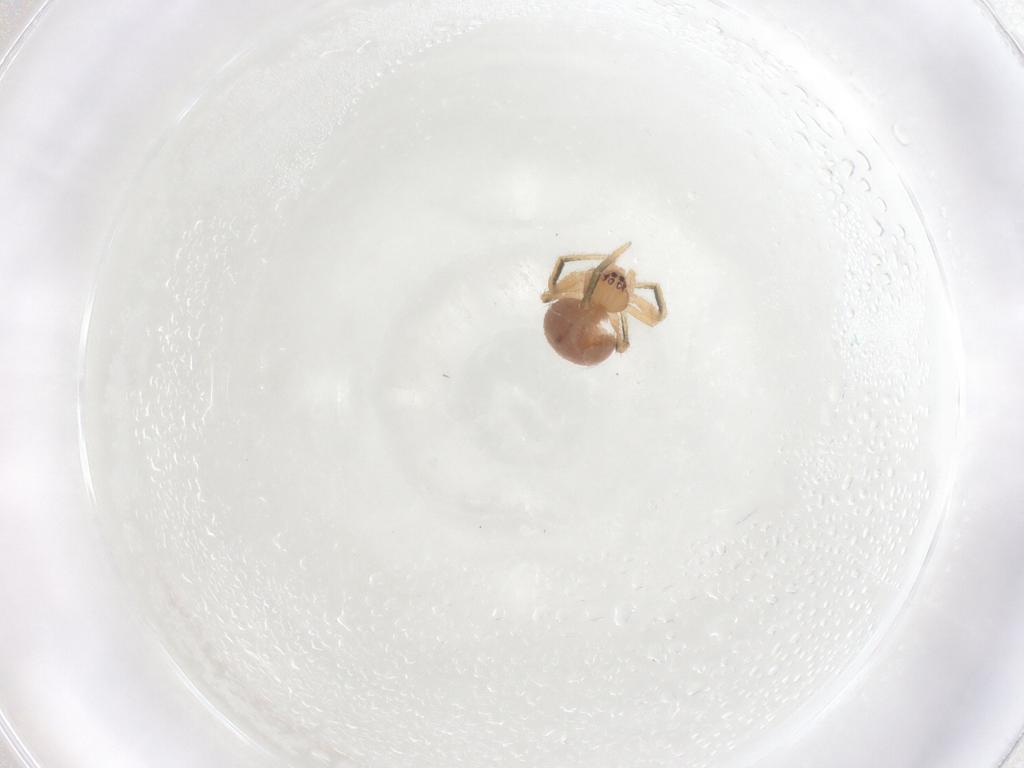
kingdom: Animalia
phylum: Arthropoda
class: Arachnida
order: Araneae
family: Theridiidae
